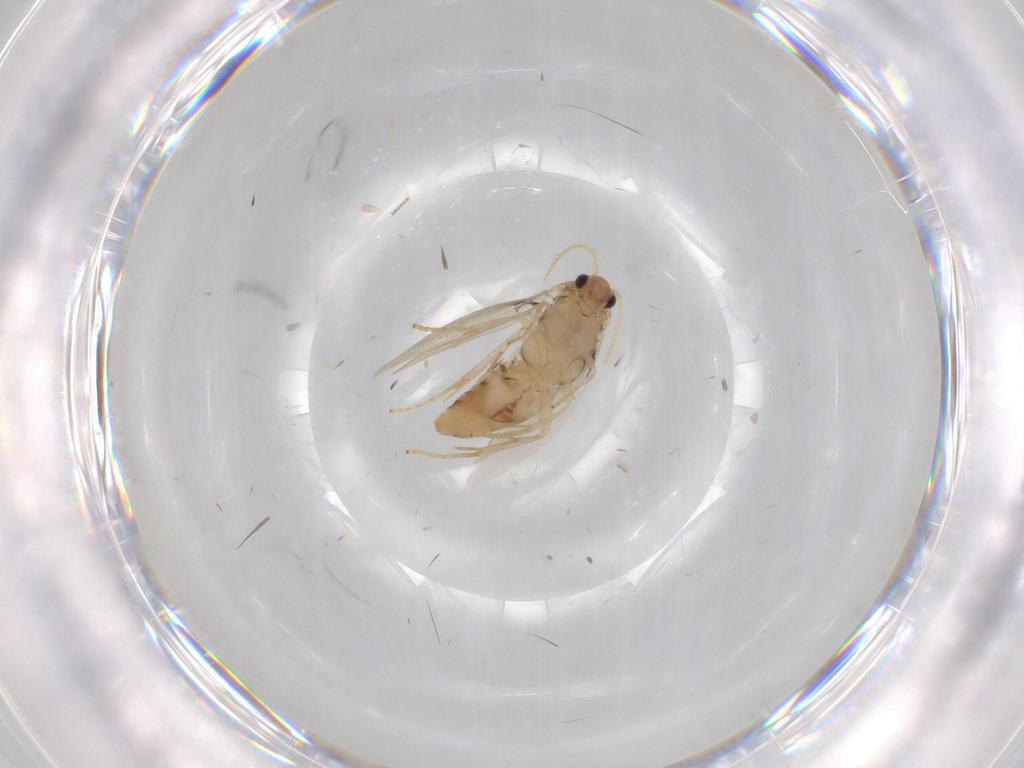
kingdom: Animalia
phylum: Arthropoda
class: Insecta
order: Lepidoptera
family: Nepticulidae
